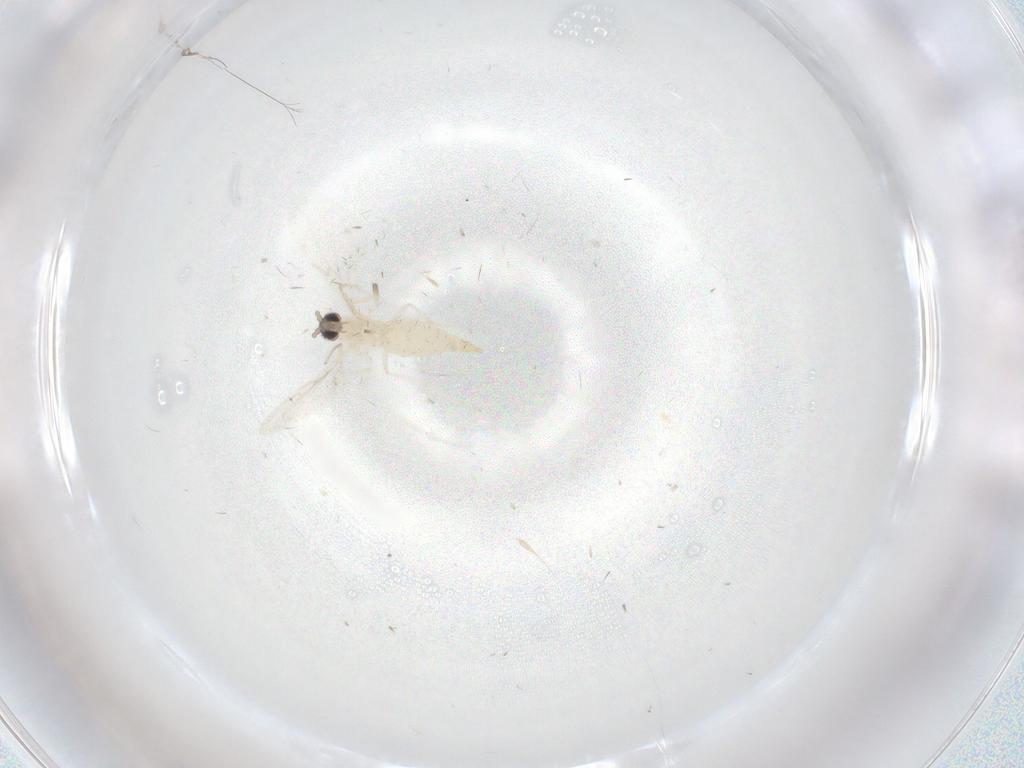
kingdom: Animalia
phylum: Arthropoda
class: Insecta
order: Diptera
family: Cecidomyiidae
